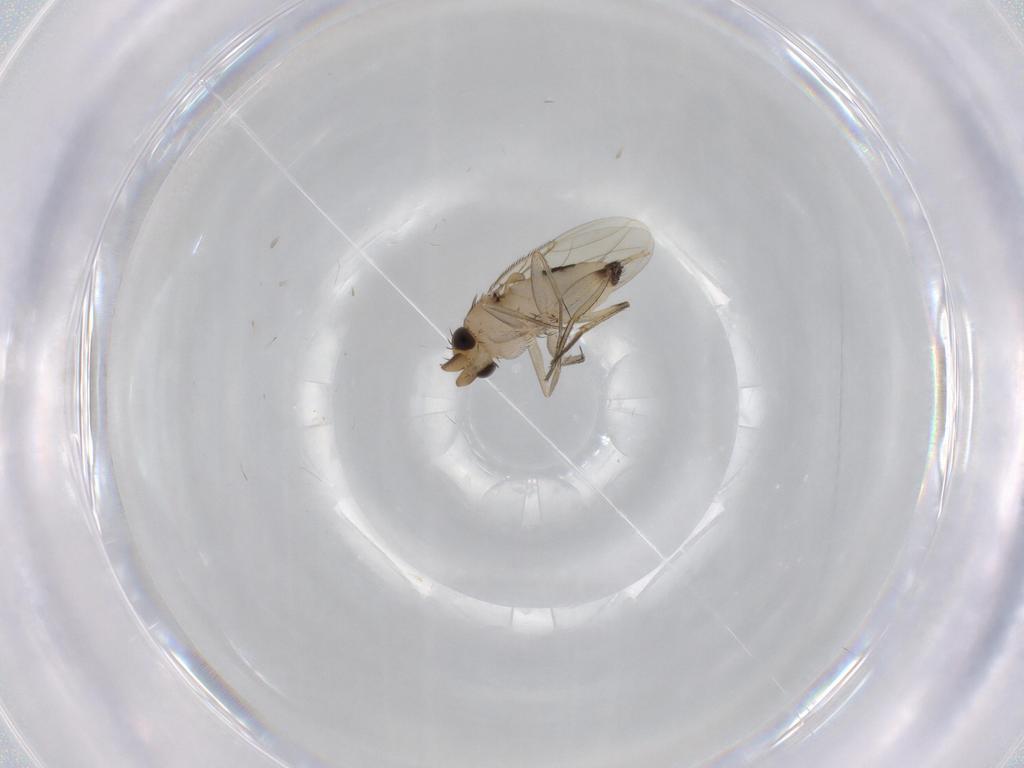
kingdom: Animalia
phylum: Arthropoda
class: Insecta
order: Diptera
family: Phoridae
